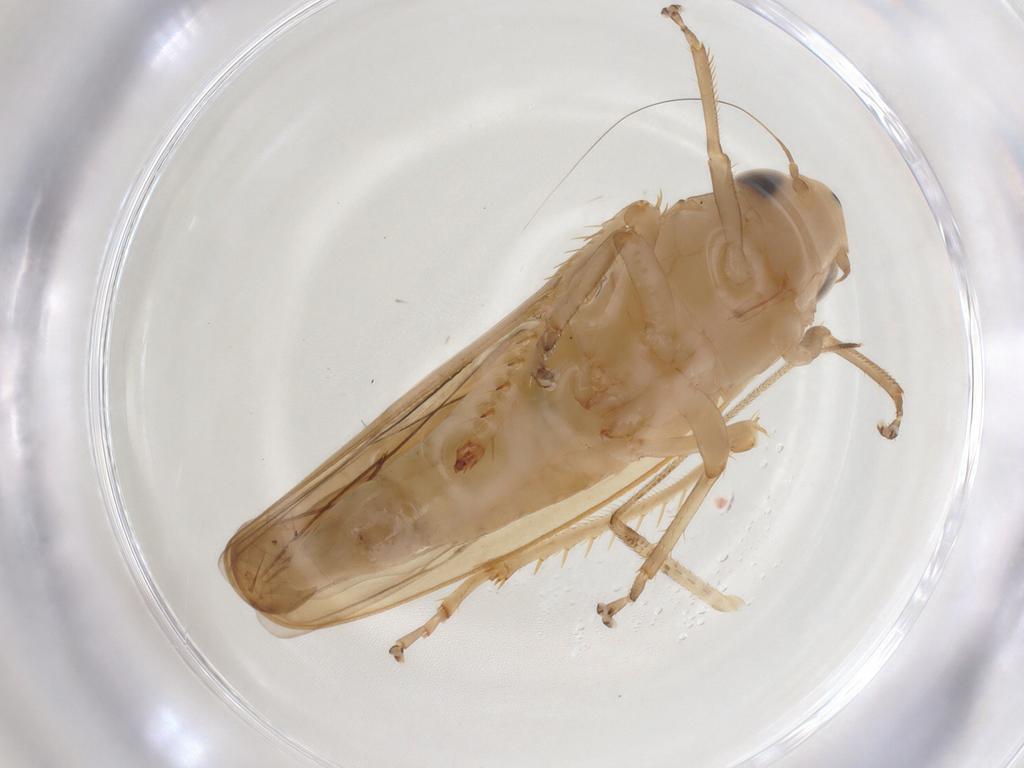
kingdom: Animalia
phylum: Arthropoda
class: Insecta
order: Hemiptera
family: Cicadellidae
